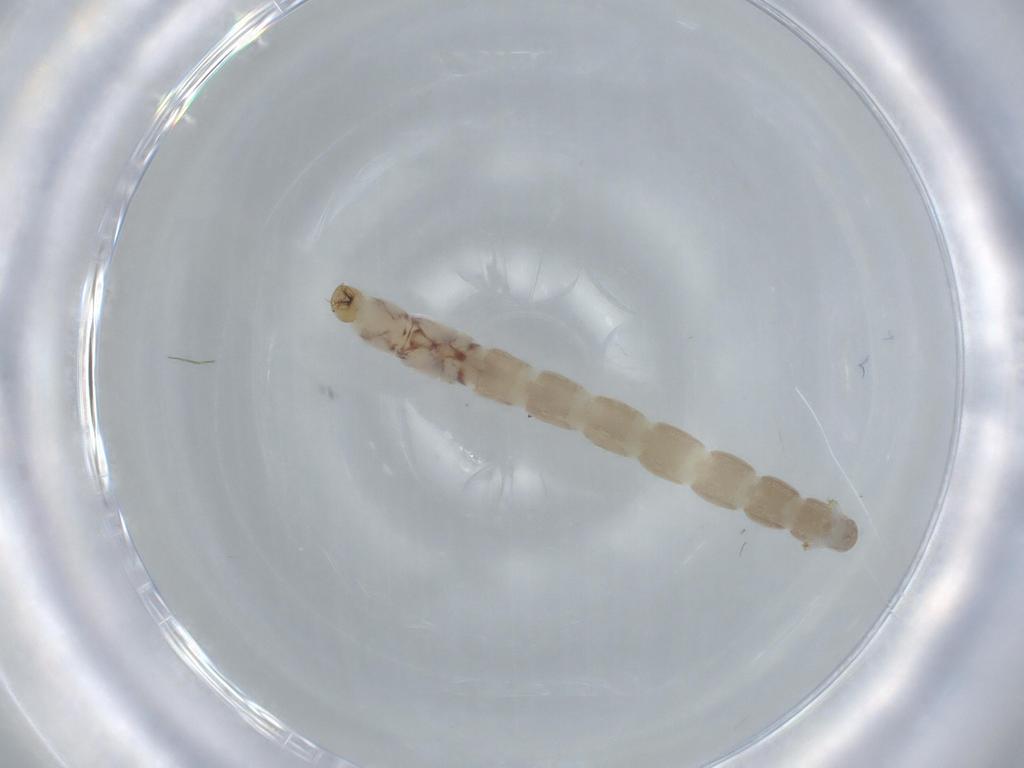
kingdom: Animalia
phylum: Arthropoda
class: Insecta
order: Diptera
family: Chironomidae
